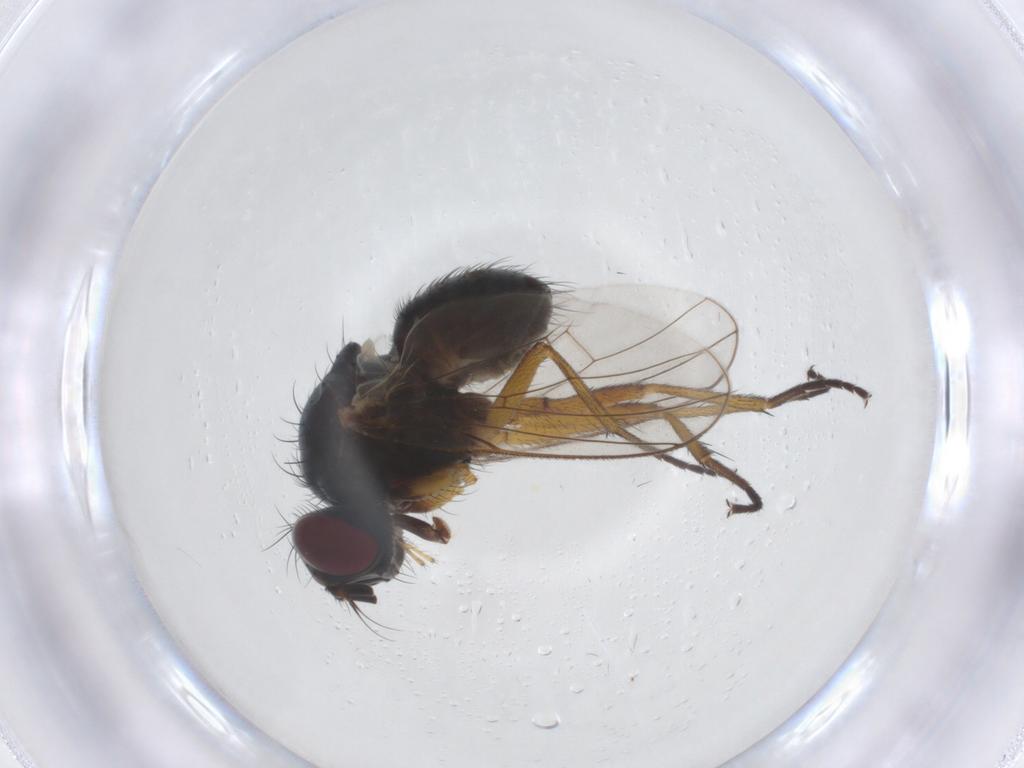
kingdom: Animalia
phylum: Arthropoda
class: Insecta
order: Diptera
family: Muscidae
